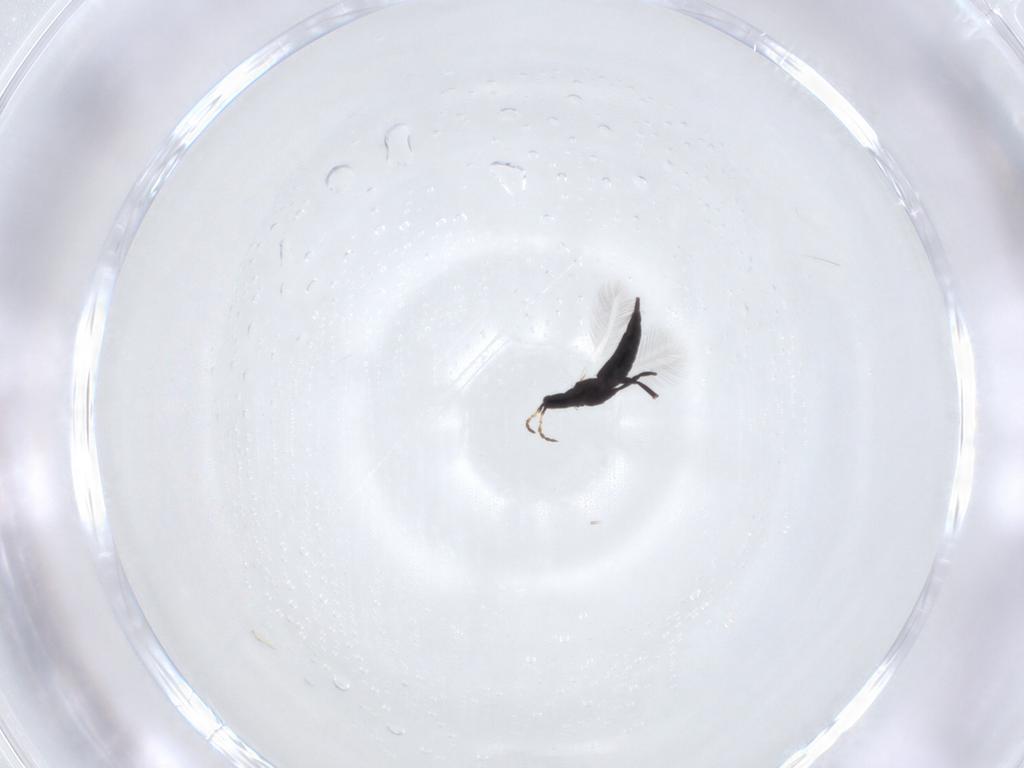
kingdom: Animalia
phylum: Arthropoda
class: Insecta
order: Thysanoptera
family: Phlaeothripidae
